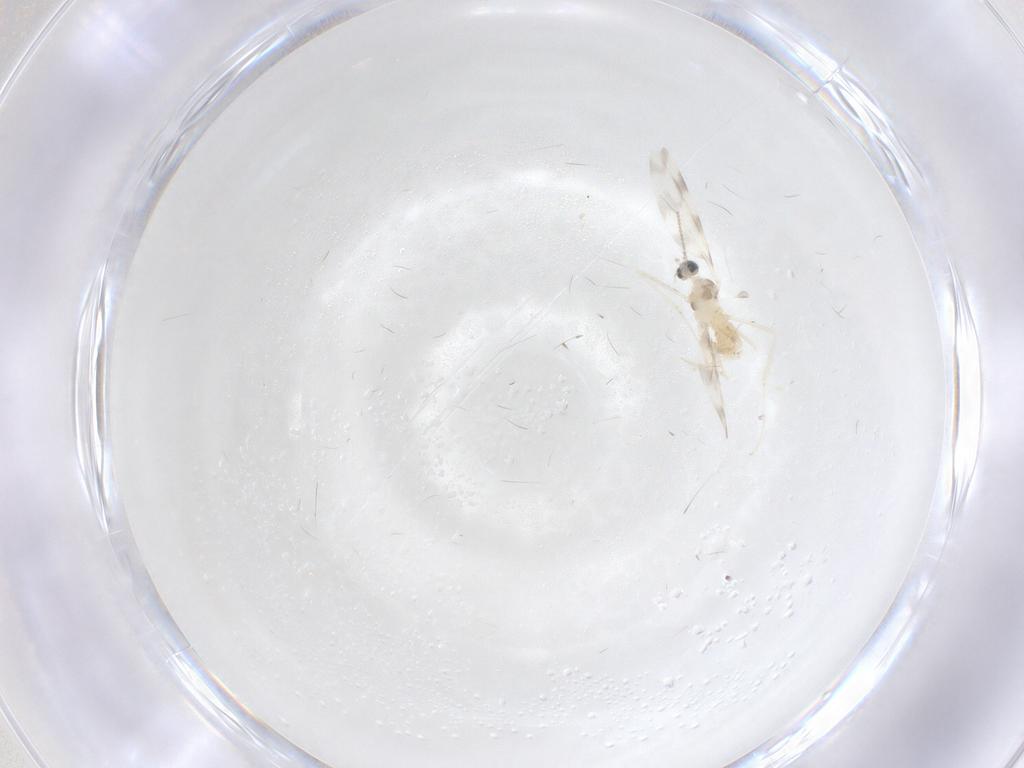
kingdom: Animalia
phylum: Arthropoda
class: Insecta
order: Diptera
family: Cecidomyiidae
